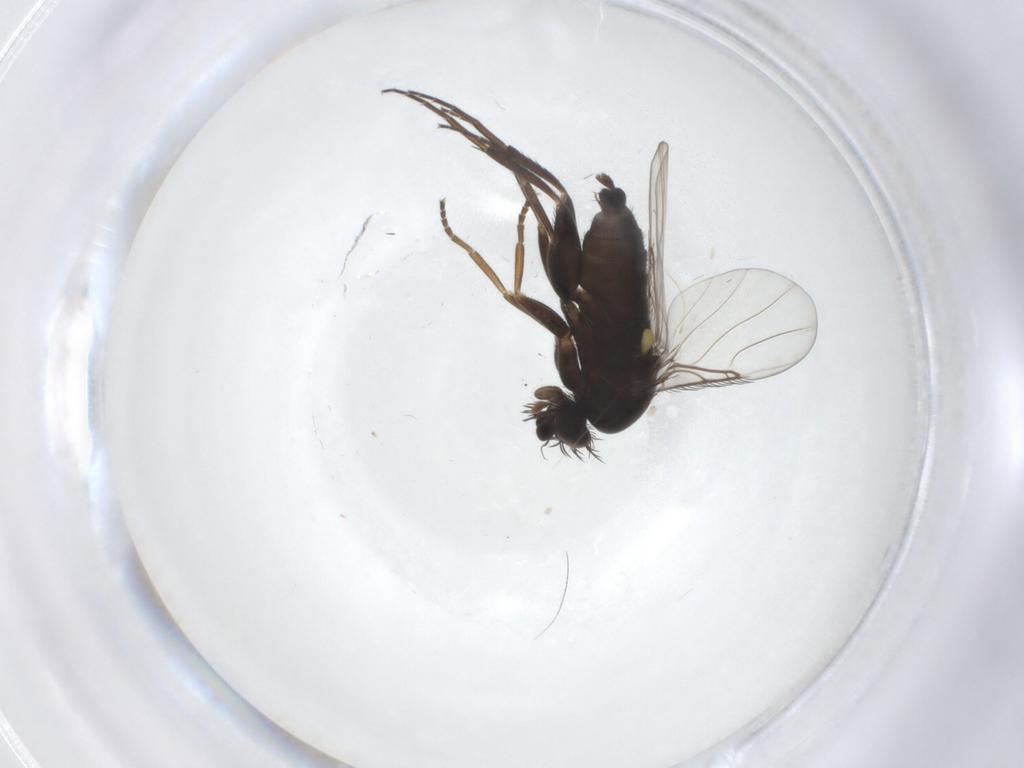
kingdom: Animalia
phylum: Arthropoda
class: Insecta
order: Diptera
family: Phoridae
